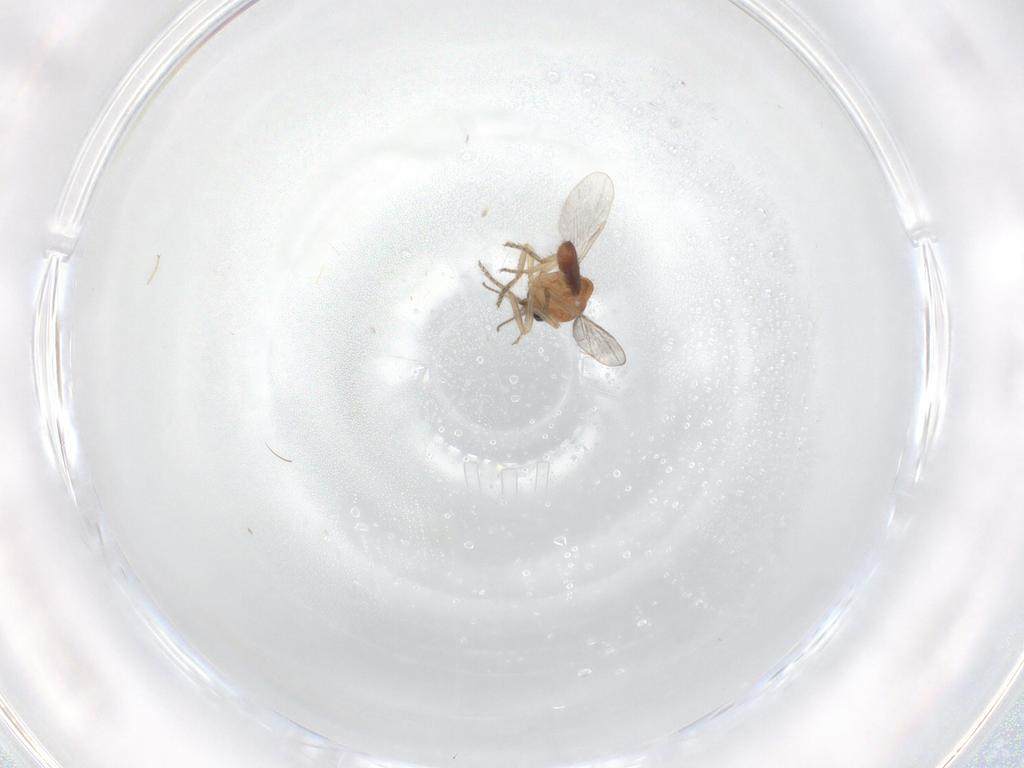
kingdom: Animalia
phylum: Arthropoda
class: Insecta
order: Diptera
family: Ceratopogonidae
